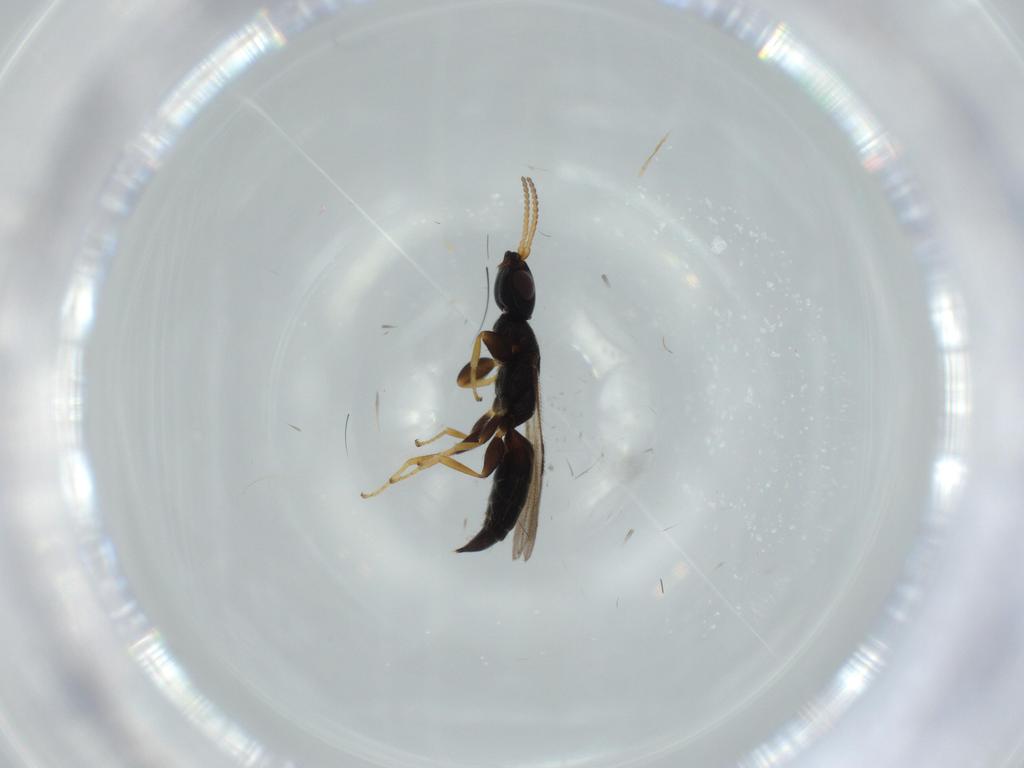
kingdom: Animalia
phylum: Arthropoda
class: Insecta
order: Hymenoptera
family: Bethylidae
